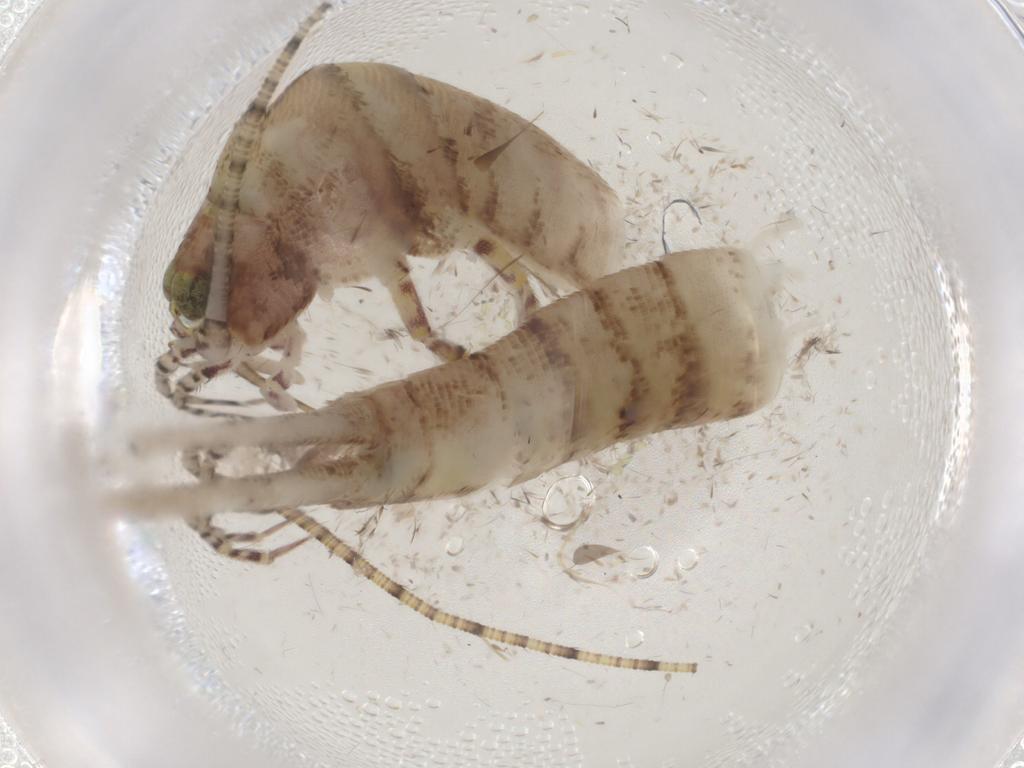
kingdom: Animalia
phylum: Arthropoda
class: Insecta
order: Archaeognatha
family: Machilidae
